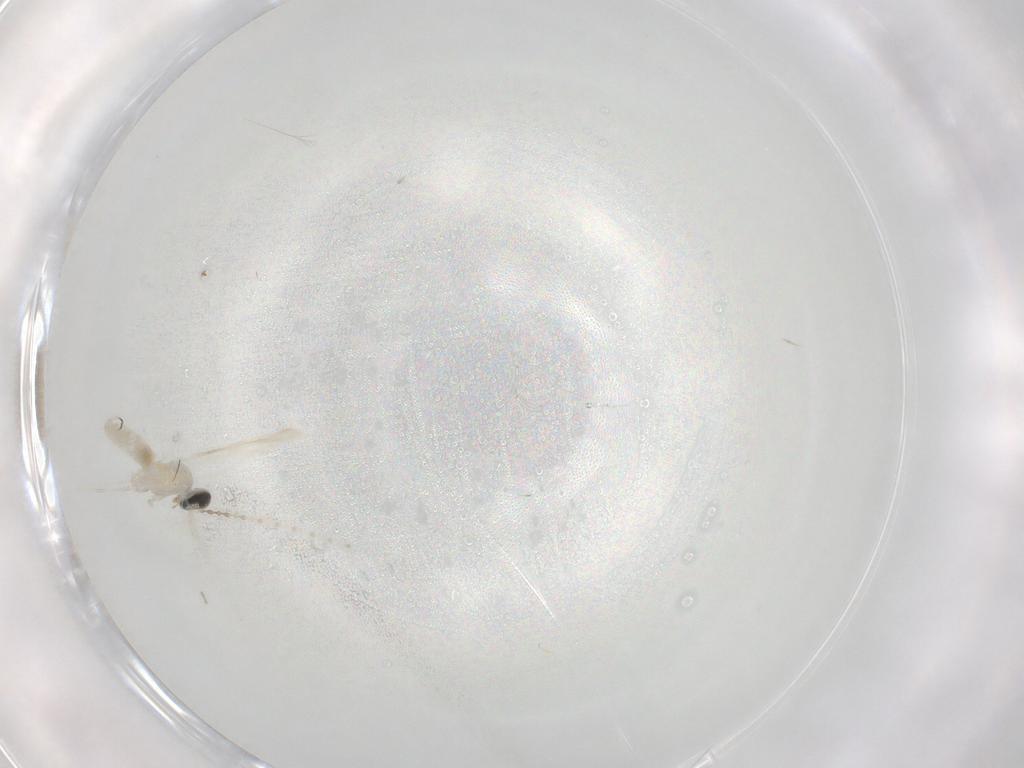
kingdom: Animalia
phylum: Arthropoda
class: Insecta
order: Diptera
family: Cecidomyiidae
